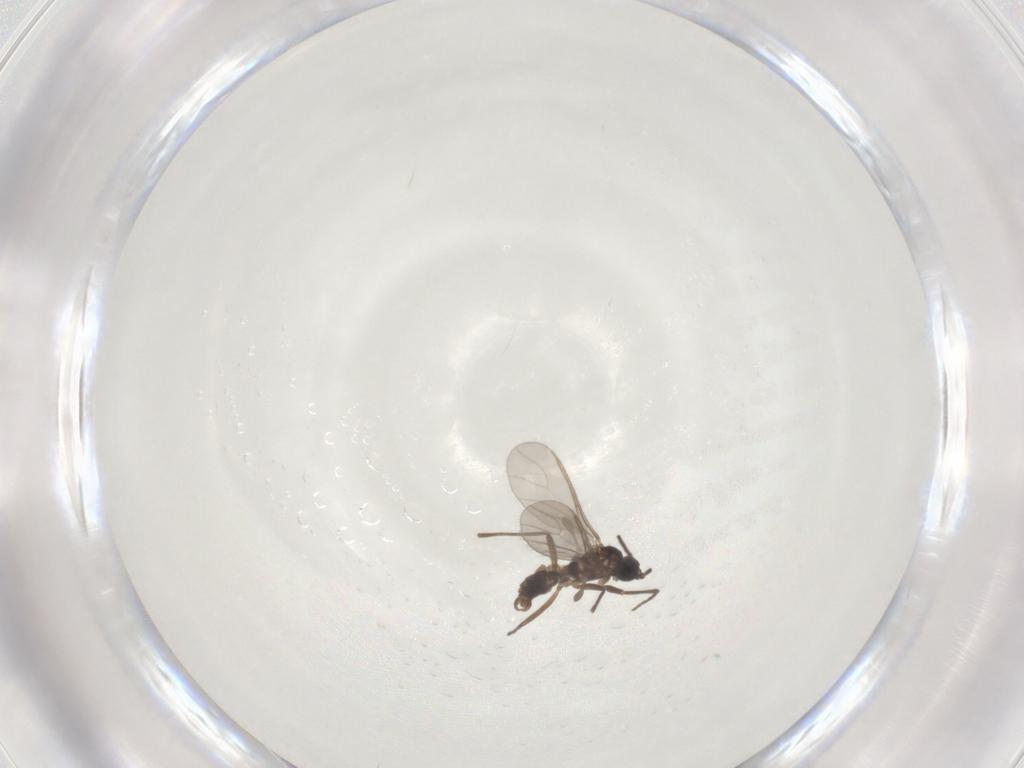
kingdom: Animalia
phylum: Arthropoda
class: Insecta
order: Diptera
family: Sciaridae
